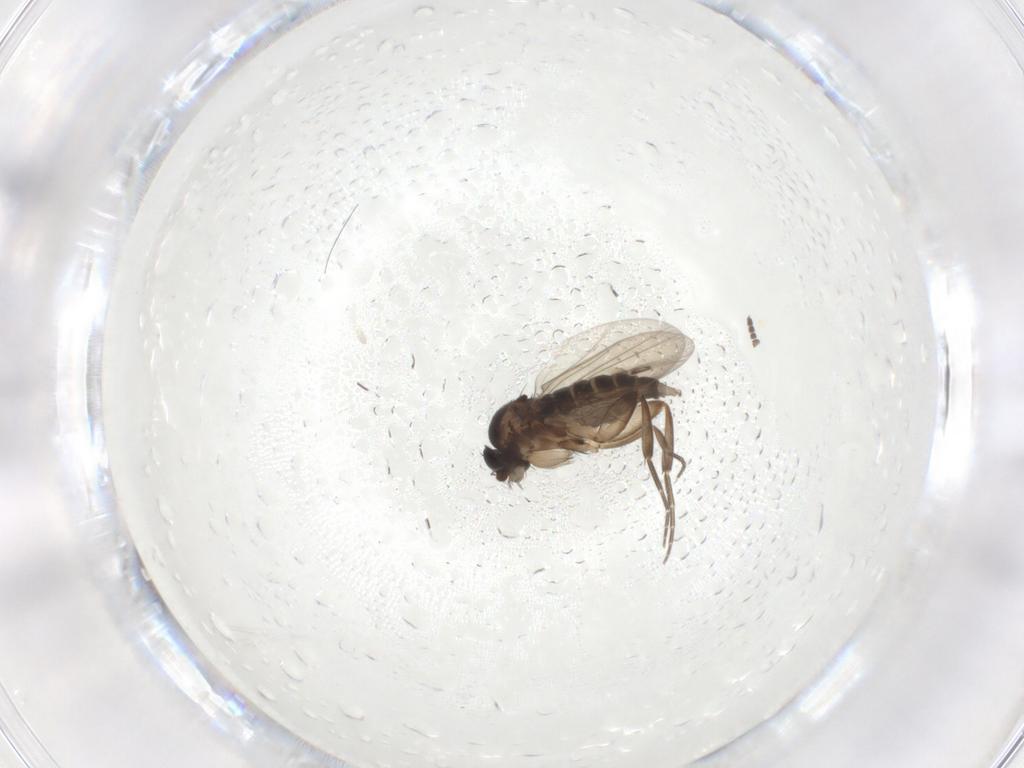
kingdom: Animalia
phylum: Arthropoda
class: Insecta
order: Diptera
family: Phoridae
